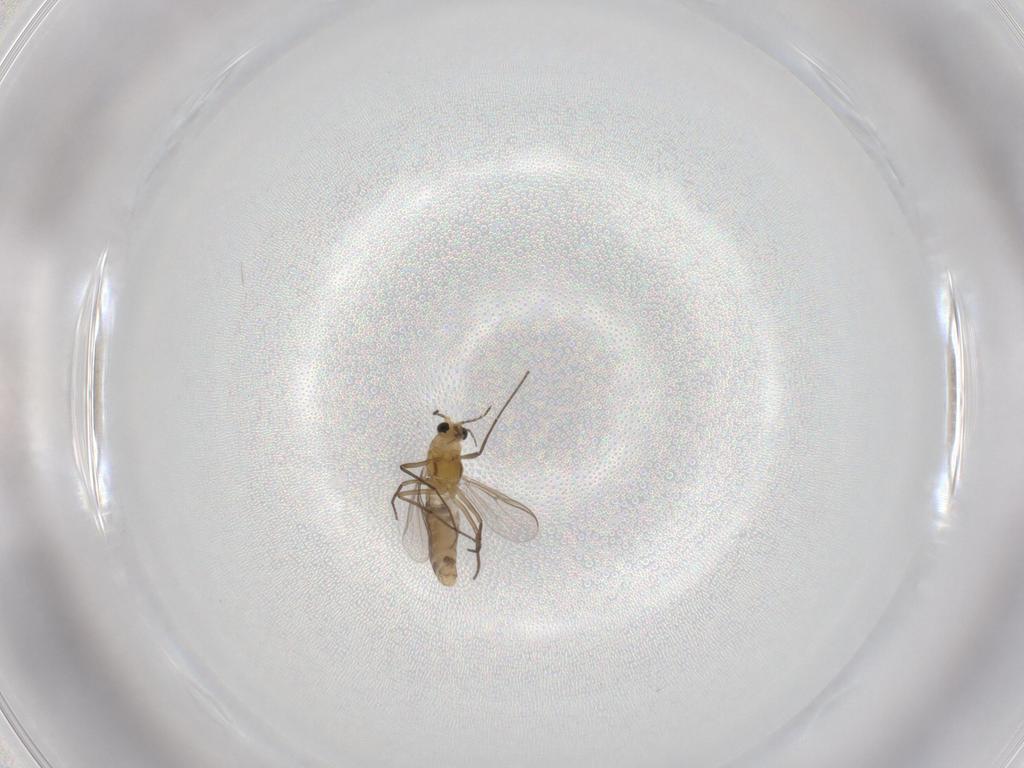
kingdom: Animalia
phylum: Arthropoda
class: Insecta
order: Diptera
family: Chironomidae
